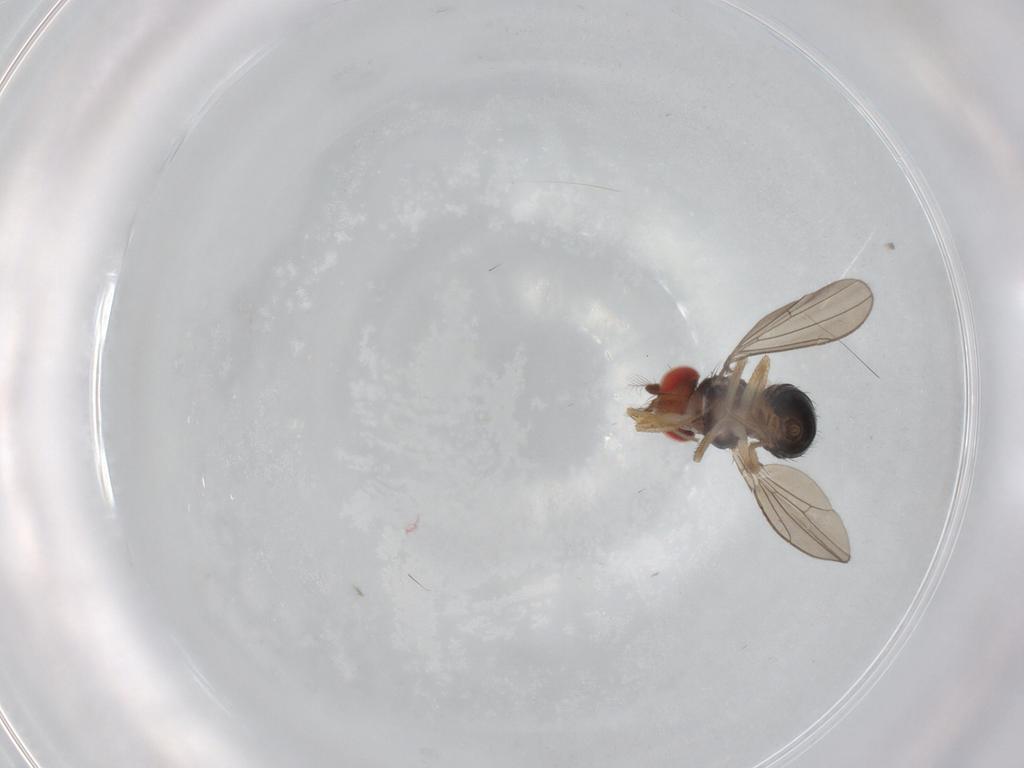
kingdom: Animalia
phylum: Arthropoda
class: Insecta
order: Diptera
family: Drosophilidae
